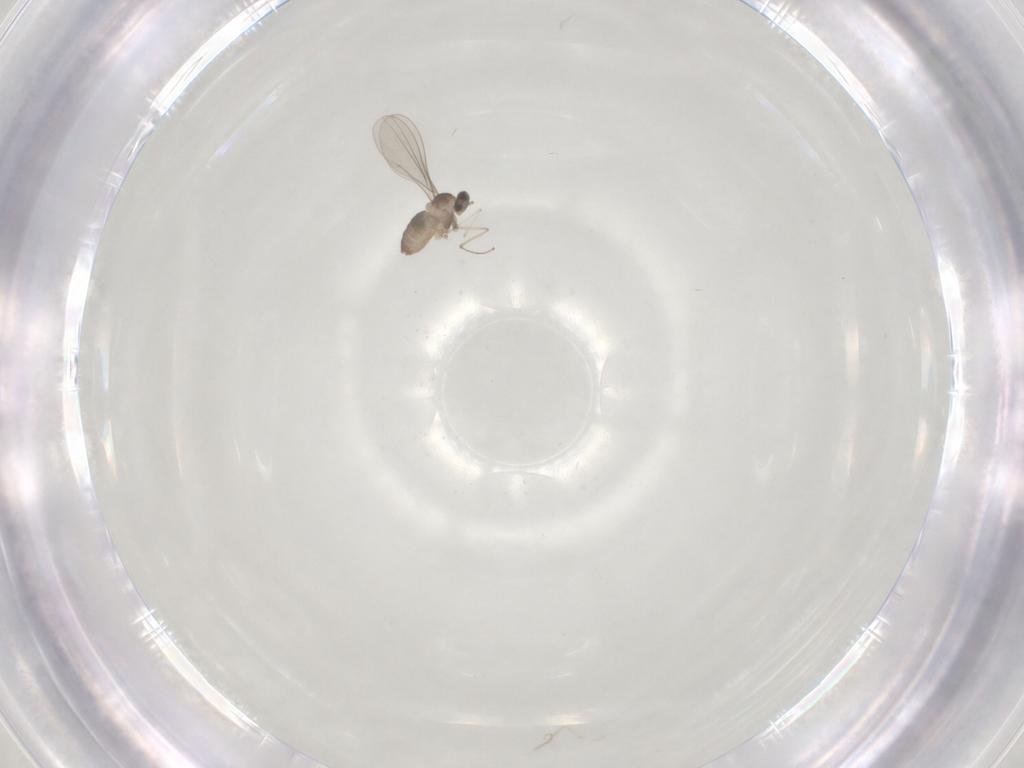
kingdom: Animalia
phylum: Arthropoda
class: Insecta
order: Diptera
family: Cecidomyiidae
